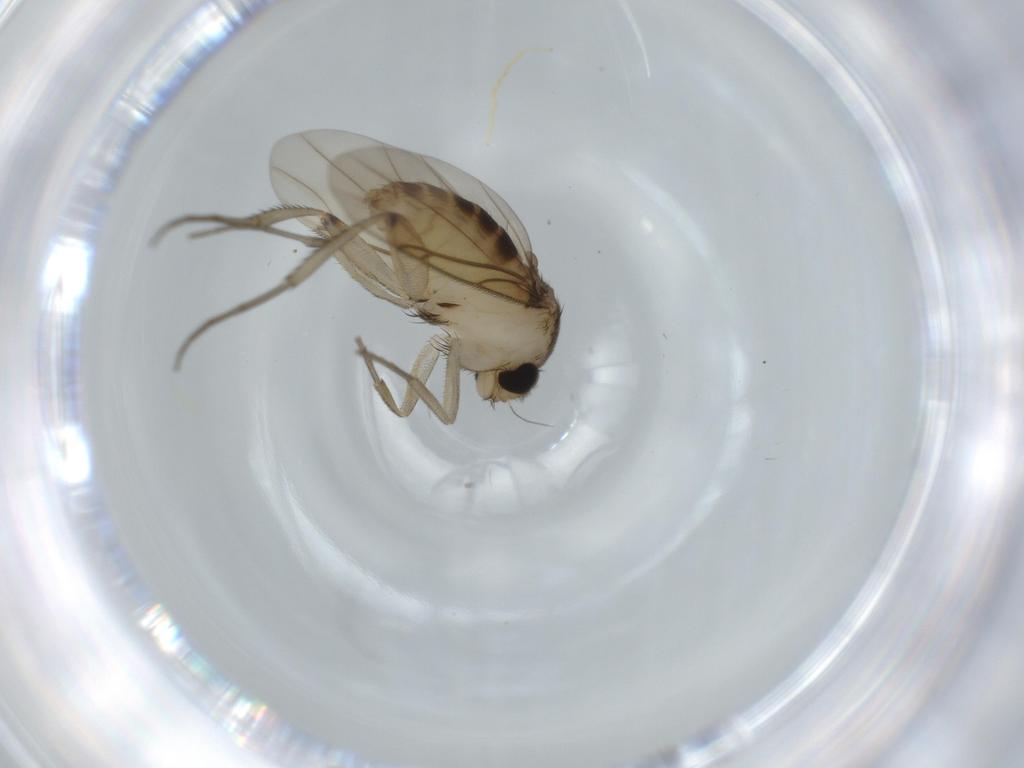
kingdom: Animalia
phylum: Arthropoda
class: Insecta
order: Diptera
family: Phoridae
